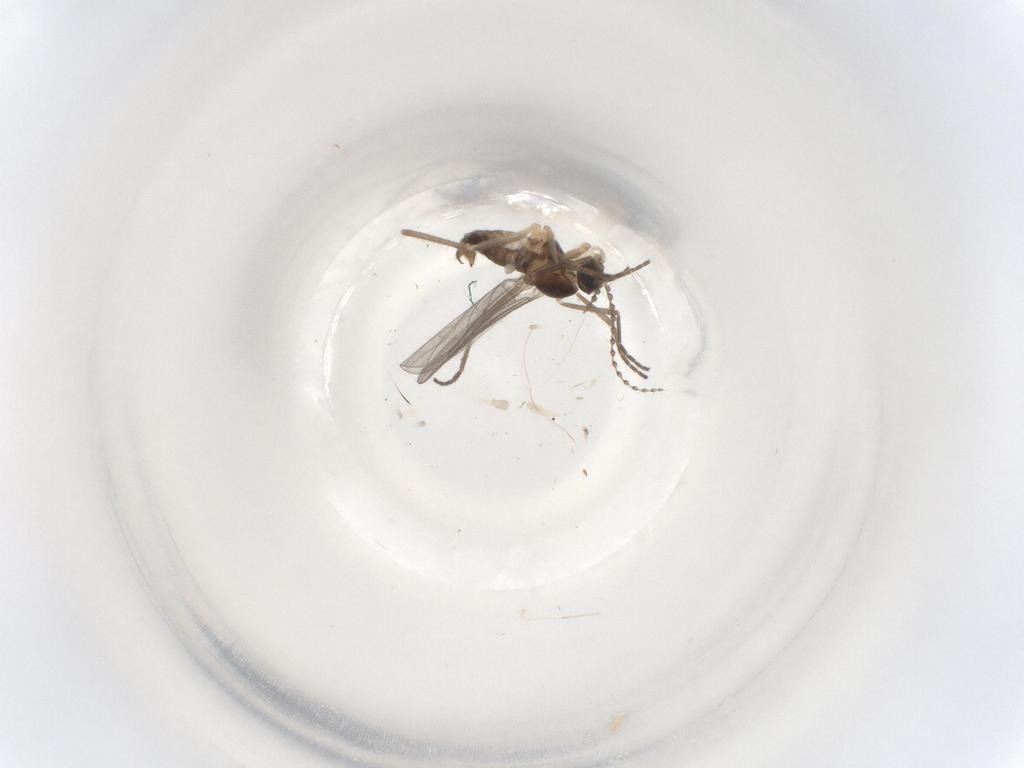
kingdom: Animalia
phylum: Arthropoda
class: Insecta
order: Diptera
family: Cecidomyiidae
